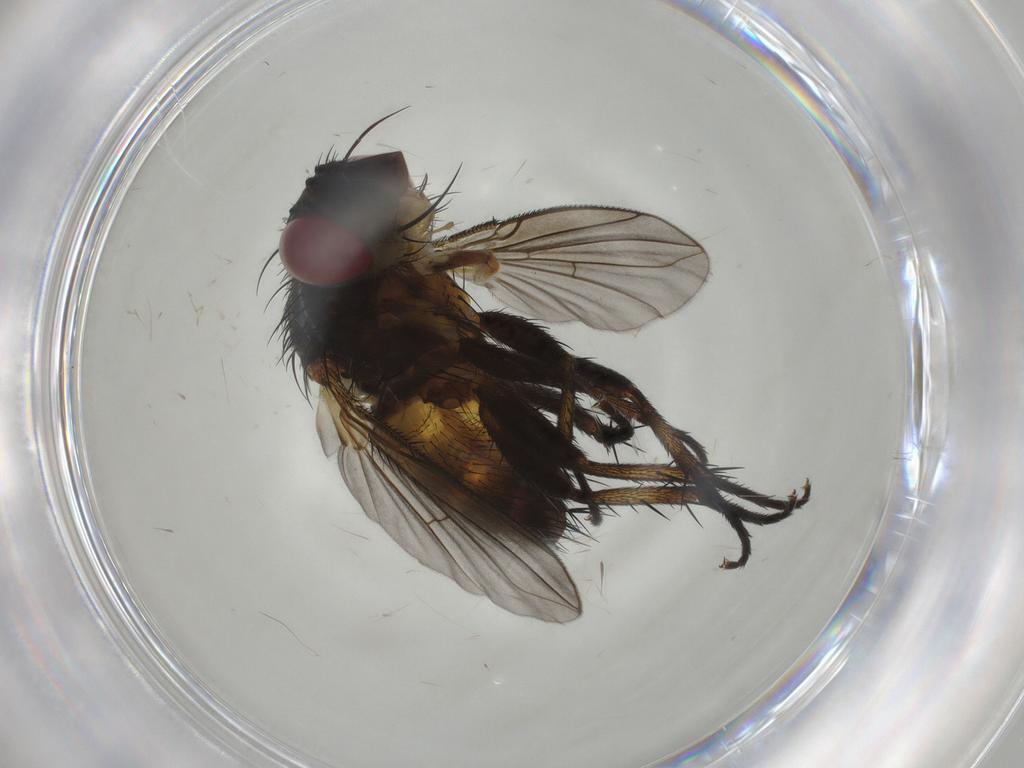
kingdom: Animalia
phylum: Arthropoda
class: Insecta
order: Diptera
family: Tachinidae
